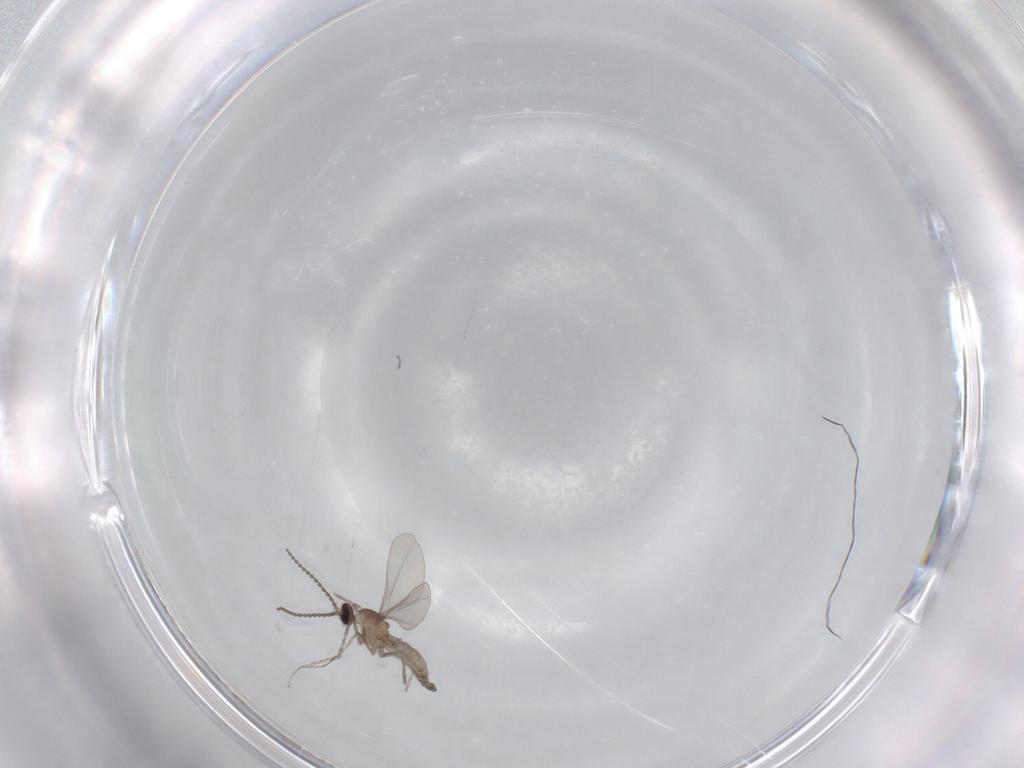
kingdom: Animalia
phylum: Arthropoda
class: Insecta
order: Diptera
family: Cecidomyiidae
